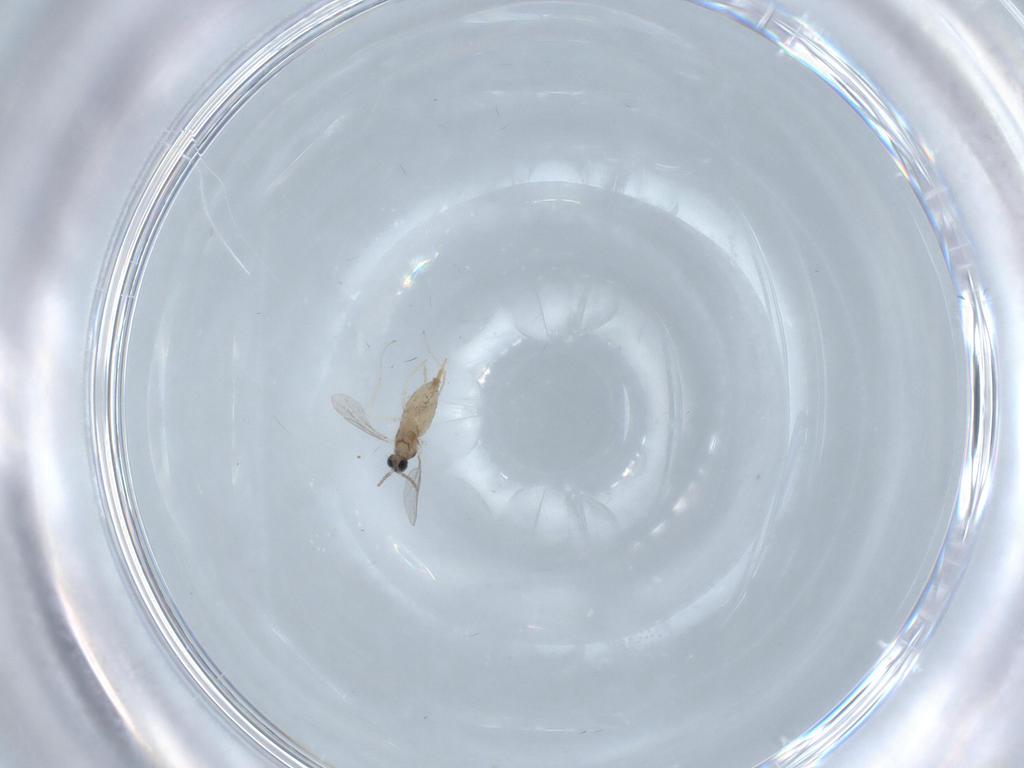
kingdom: Animalia
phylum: Arthropoda
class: Insecta
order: Diptera
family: Cecidomyiidae
